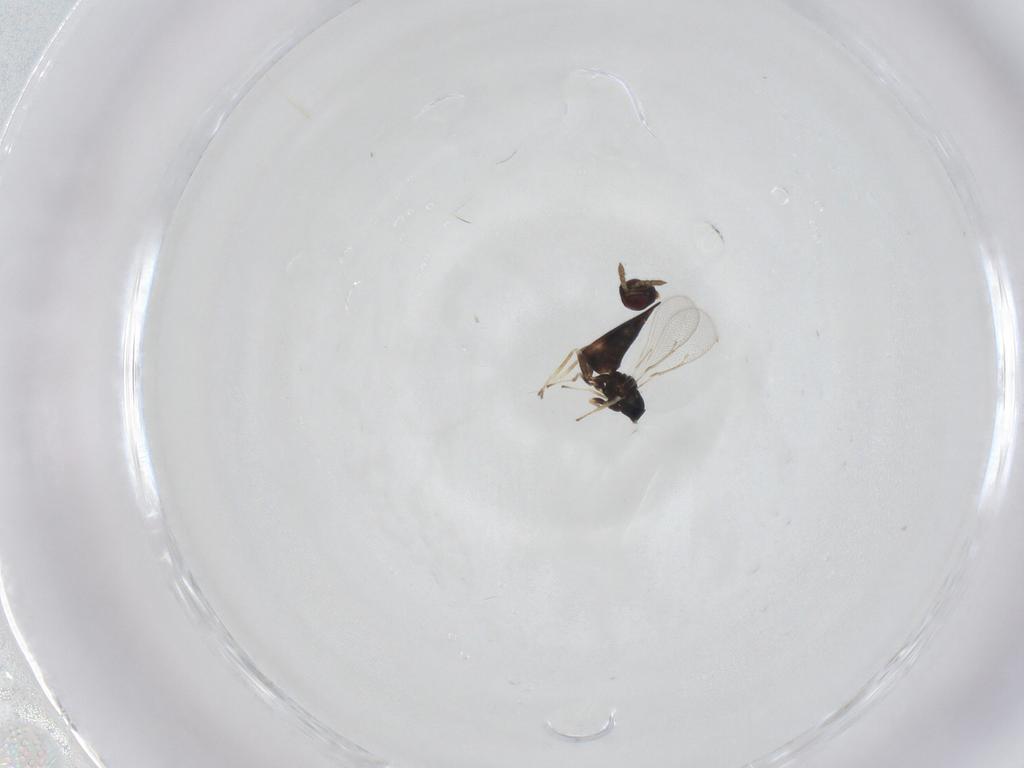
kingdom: Animalia
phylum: Arthropoda
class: Insecta
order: Hymenoptera
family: Eulophidae
